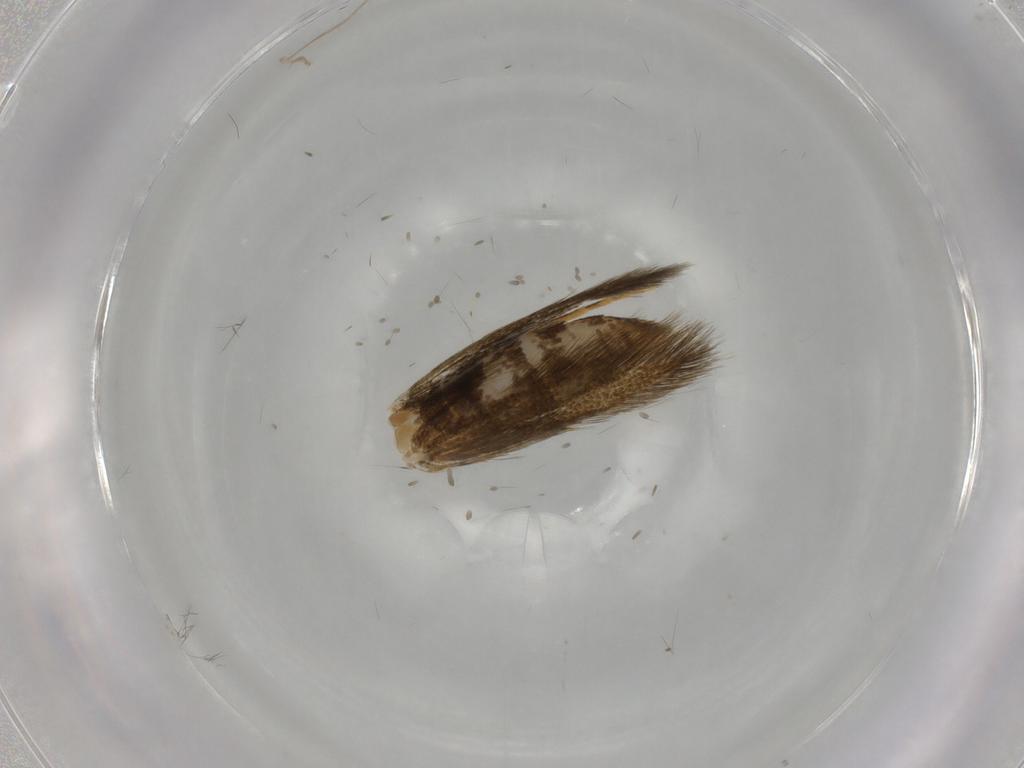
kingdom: Animalia
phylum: Arthropoda
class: Insecta
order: Lepidoptera
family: Tineidae
